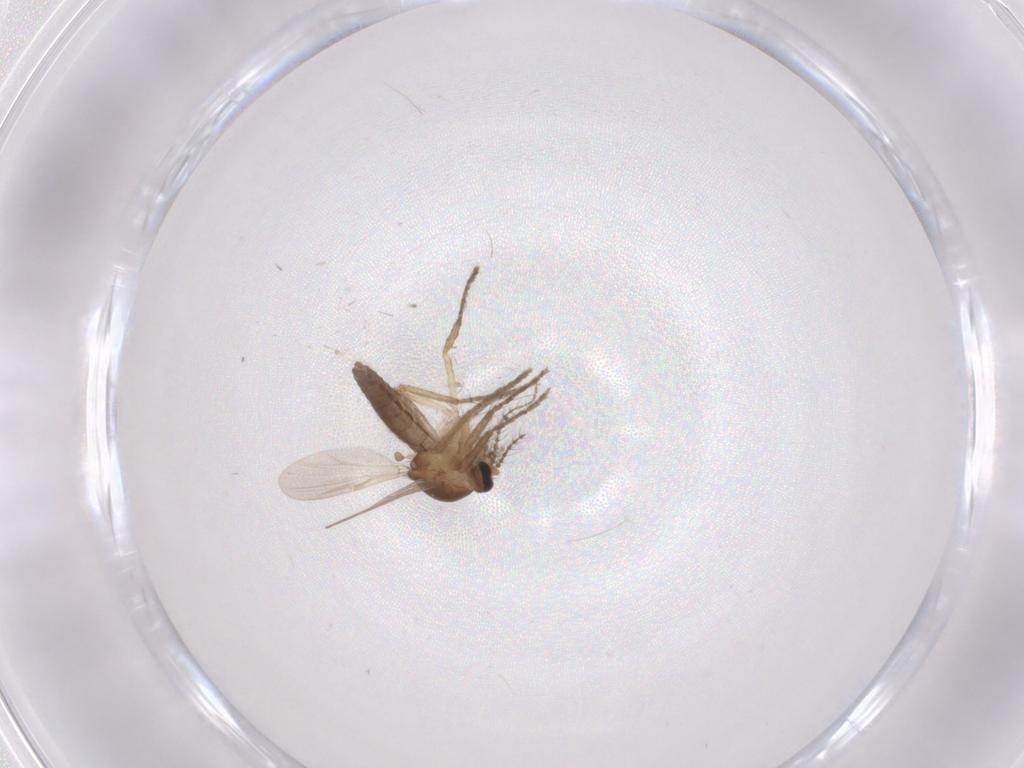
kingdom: Animalia
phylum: Arthropoda
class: Insecta
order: Diptera
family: Ceratopogonidae
